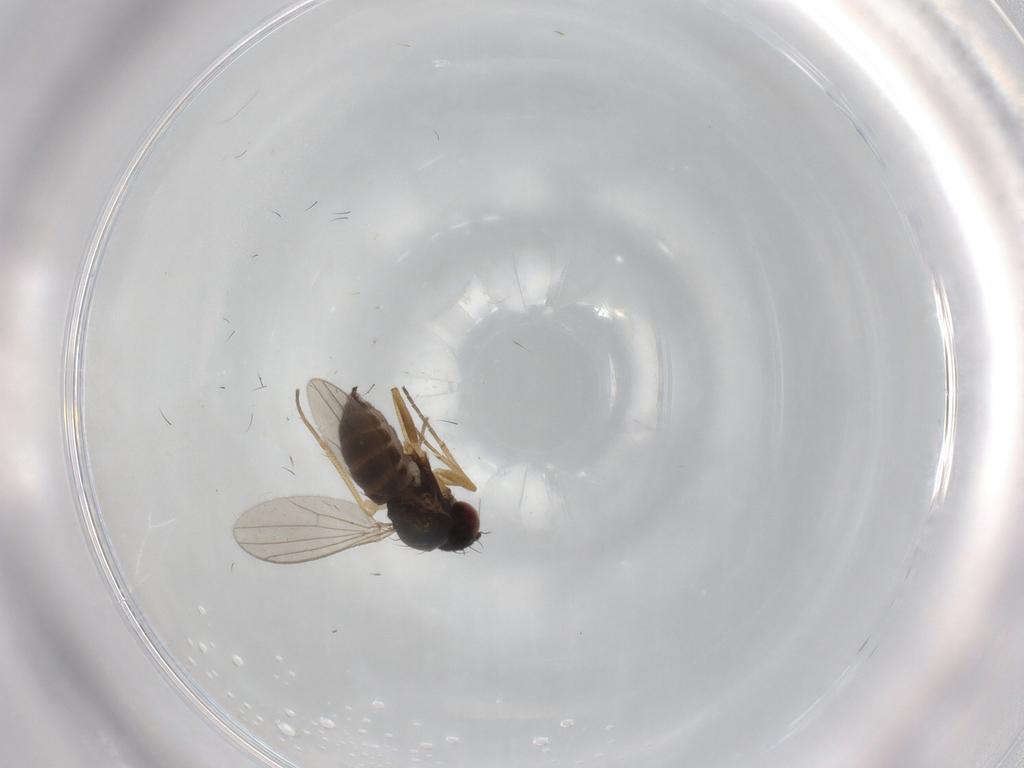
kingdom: Animalia
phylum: Arthropoda
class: Insecta
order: Diptera
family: Dolichopodidae
